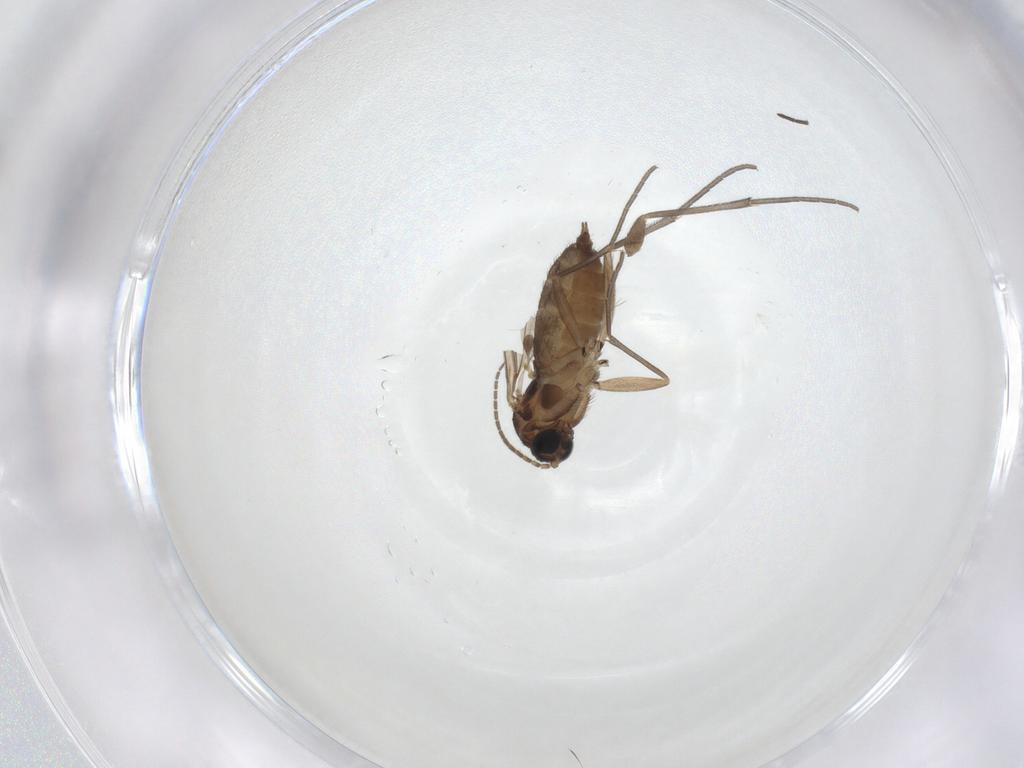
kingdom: Animalia
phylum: Arthropoda
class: Insecta
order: Diptera
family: Sciaridae
